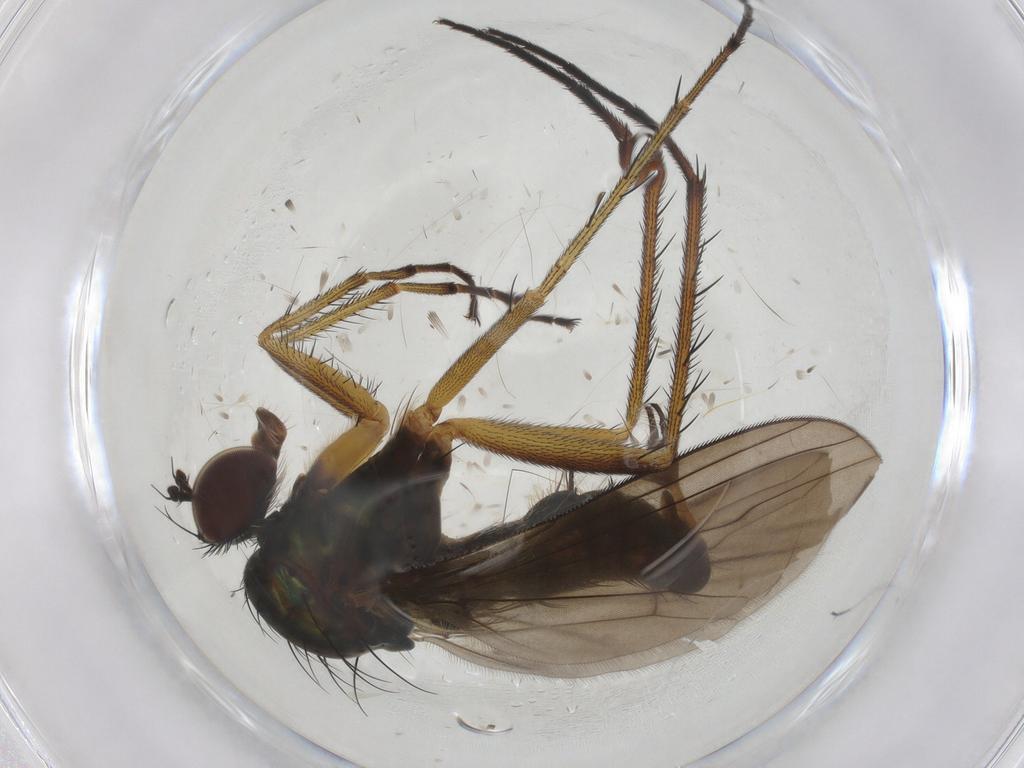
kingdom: Animalia
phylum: Arthropoda
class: Insecta
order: Diptera
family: Dolichopodidae
